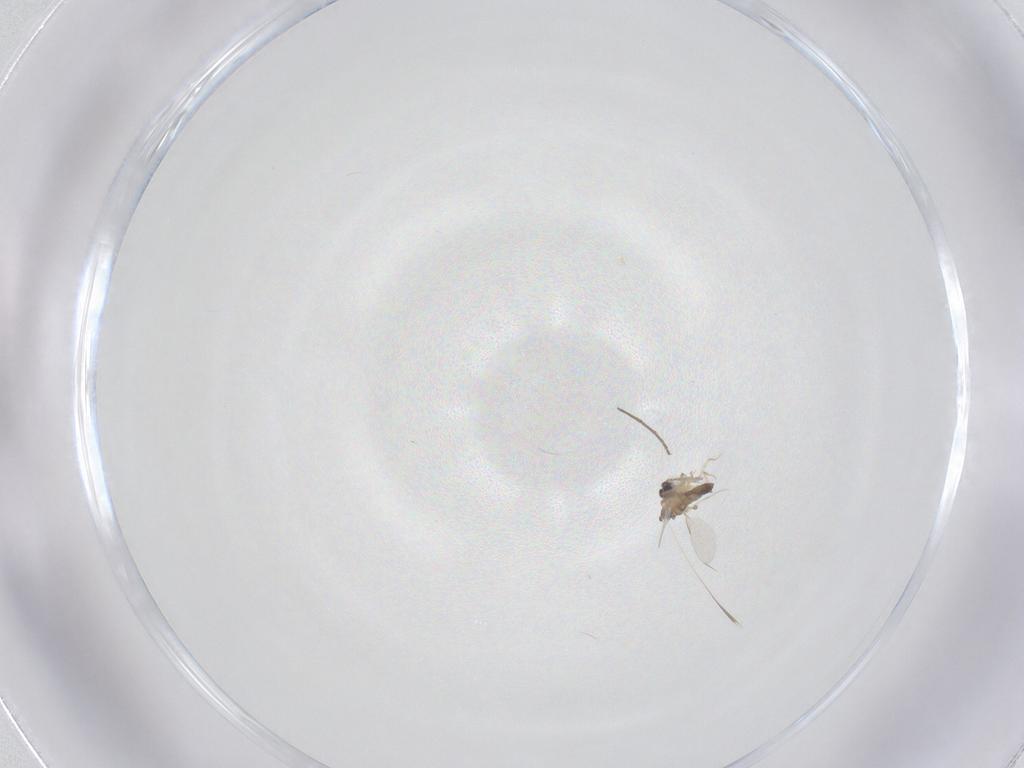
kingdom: Animalia
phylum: Arthropoda
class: Insecta
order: Diptera
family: Chironomidae
